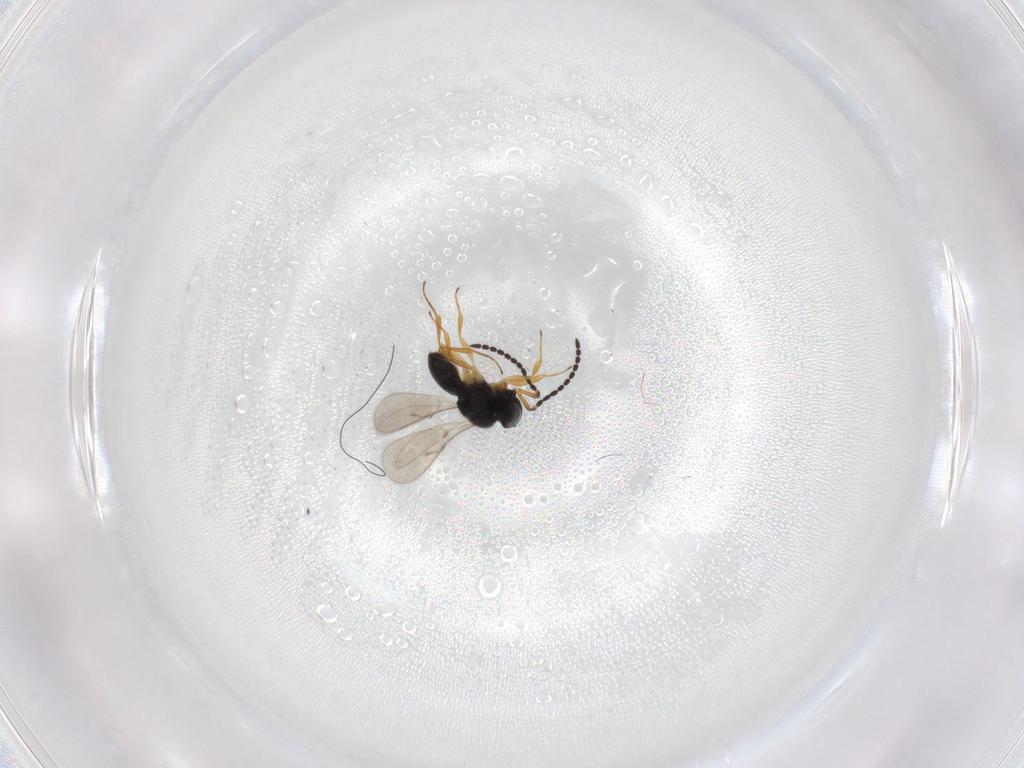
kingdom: Animalia
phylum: Arthropoda
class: Insecta
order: Hymenoptera
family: Scelionidae
